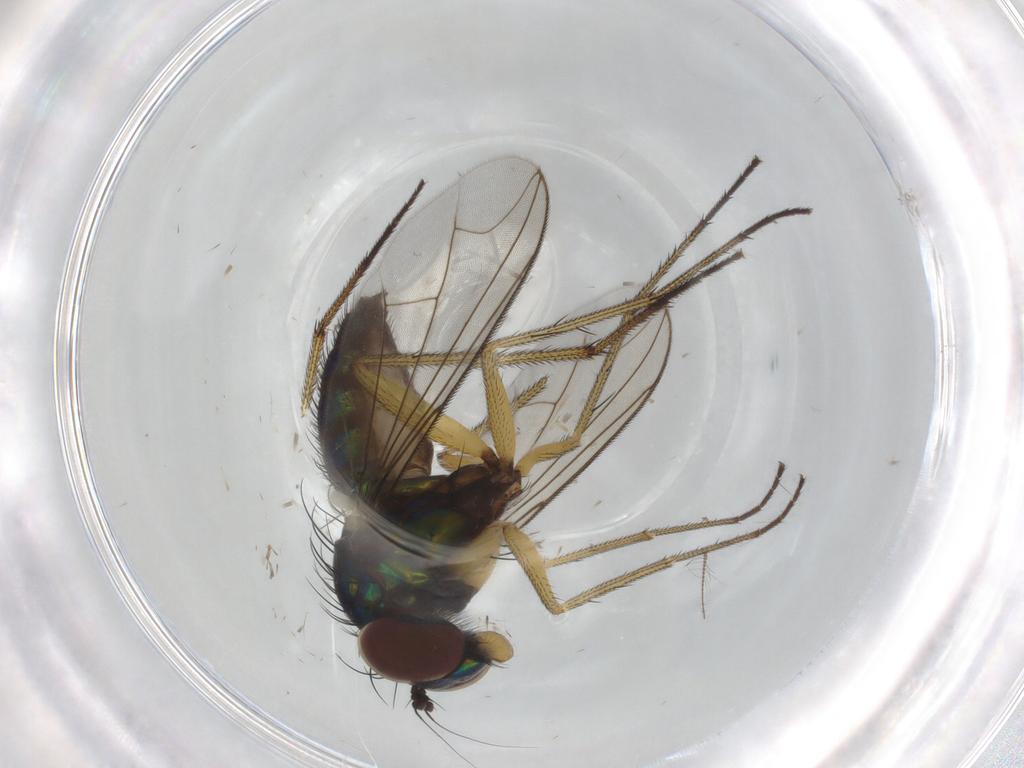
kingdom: Animalia
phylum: Arthropoda
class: Insecta
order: Diptera
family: Dolichopodidae
